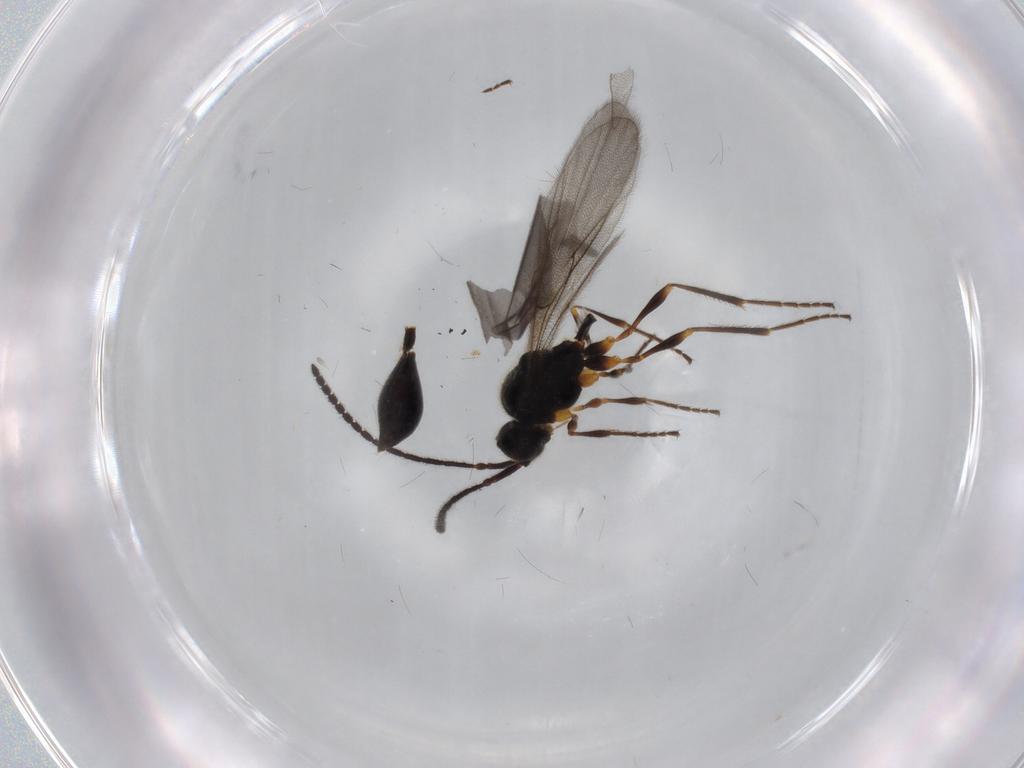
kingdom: Animalia
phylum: Arthropoda
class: Insecta
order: Hymenoptera
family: Diapriidae
